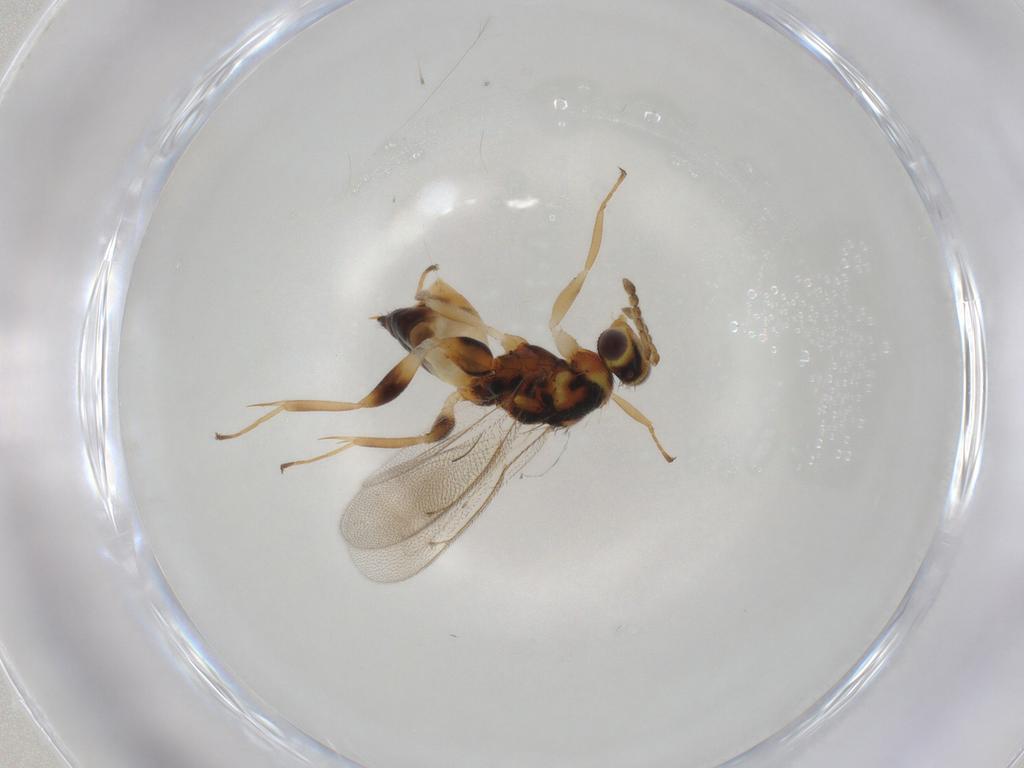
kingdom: Animalia
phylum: Arthropoda
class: Insecta
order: Hymenoptera
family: Eulophidae
